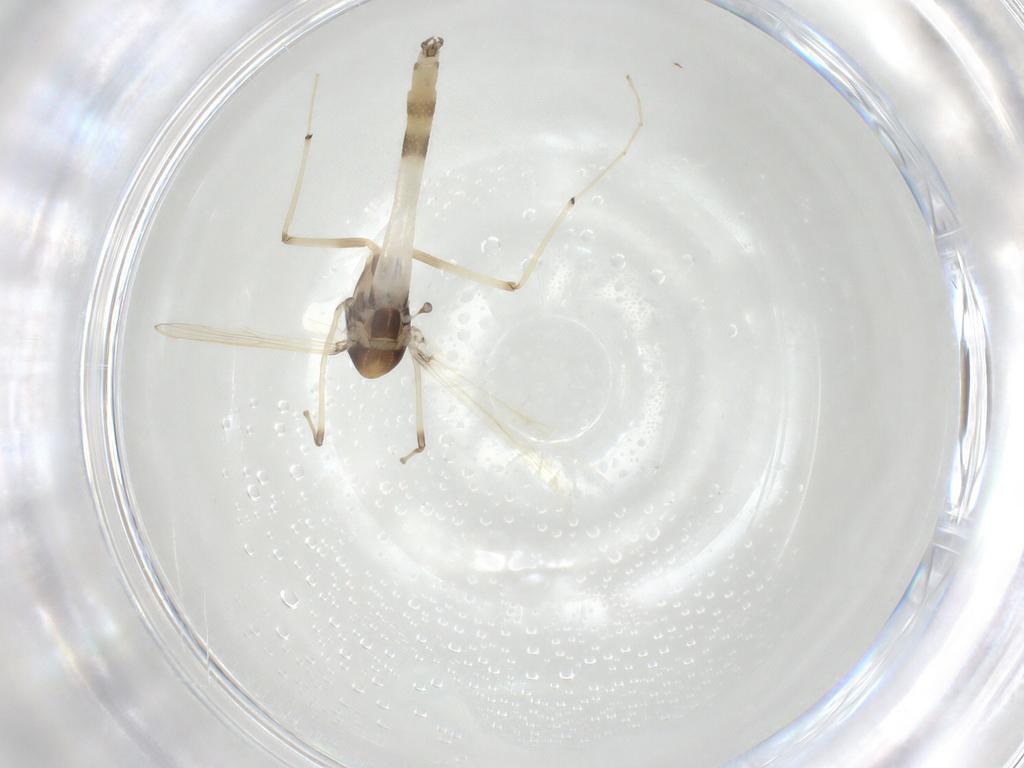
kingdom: Animalia
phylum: Arthropoda
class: Insecta
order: Diptera
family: Chironomidae
